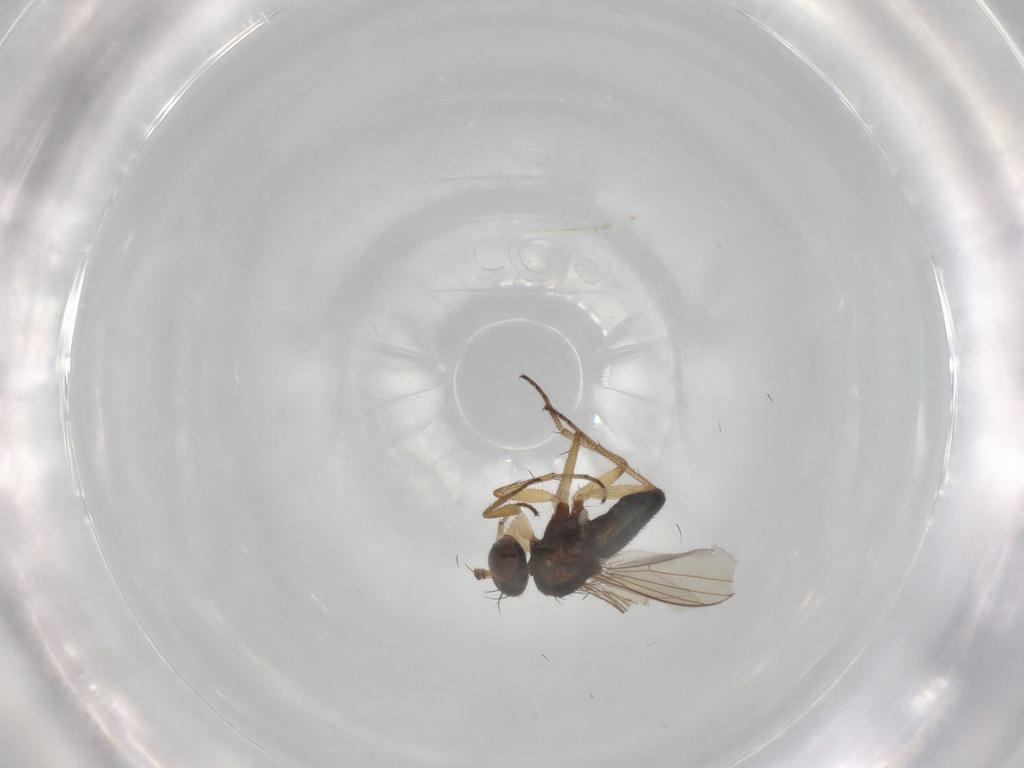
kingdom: Animalia
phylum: Arthropoda
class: Insecta
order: Diptera
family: Dolichopodidae
